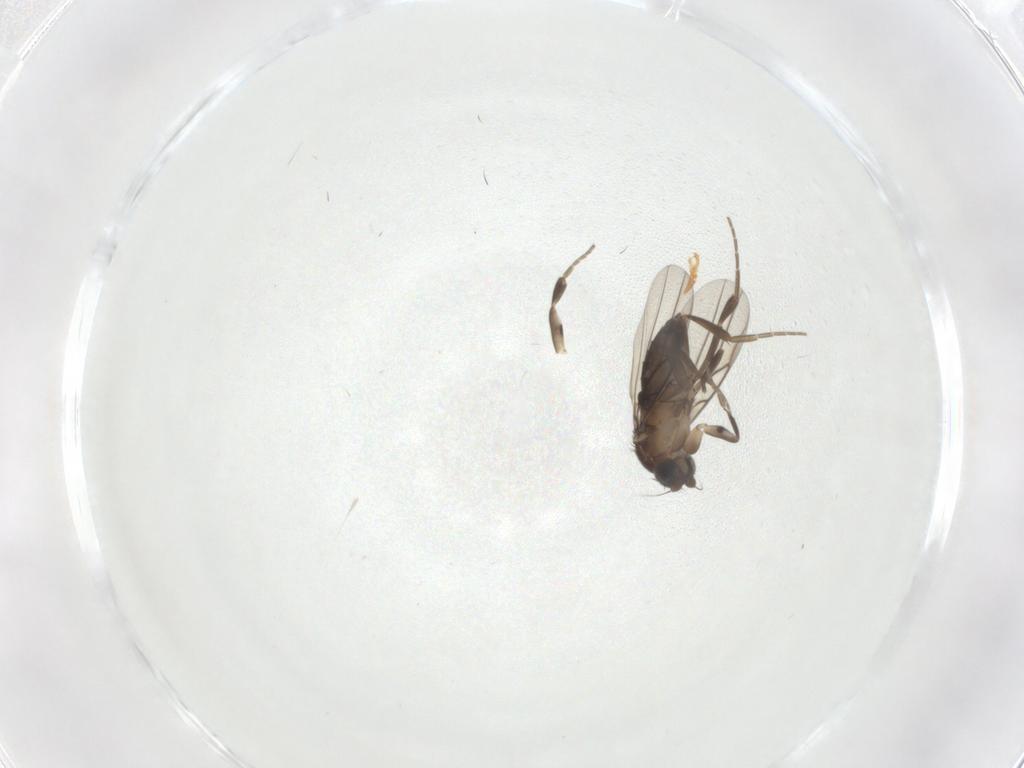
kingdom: Animalia
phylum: Arthropoda
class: Insecta
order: Diptera
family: Phoridae
